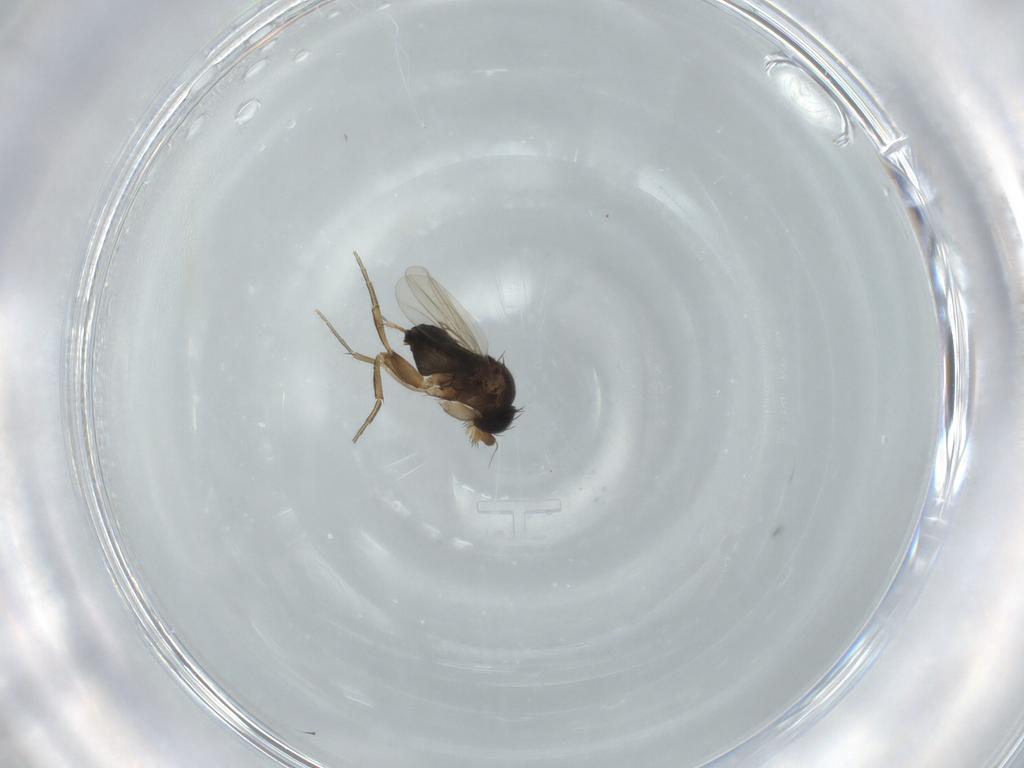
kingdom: Animalia
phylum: Arthropoda
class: Insecta
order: Diptera
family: Phoridae
